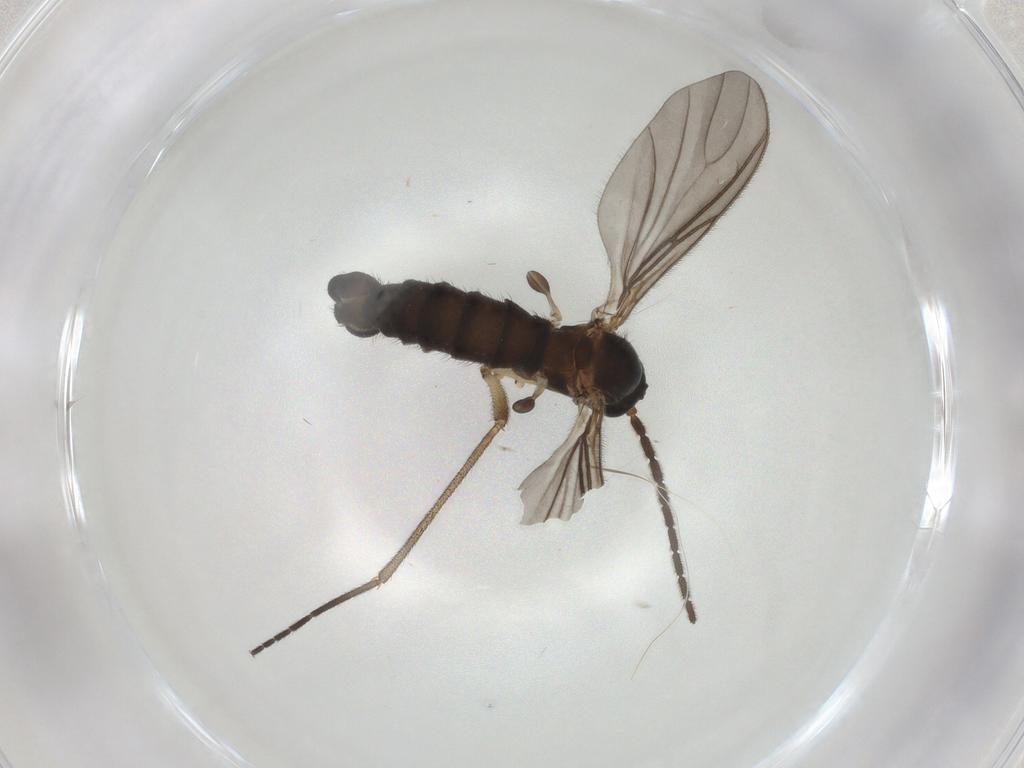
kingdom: Animalia
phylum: Arthropoda
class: Insecta
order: Diptera
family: Sciaridae
